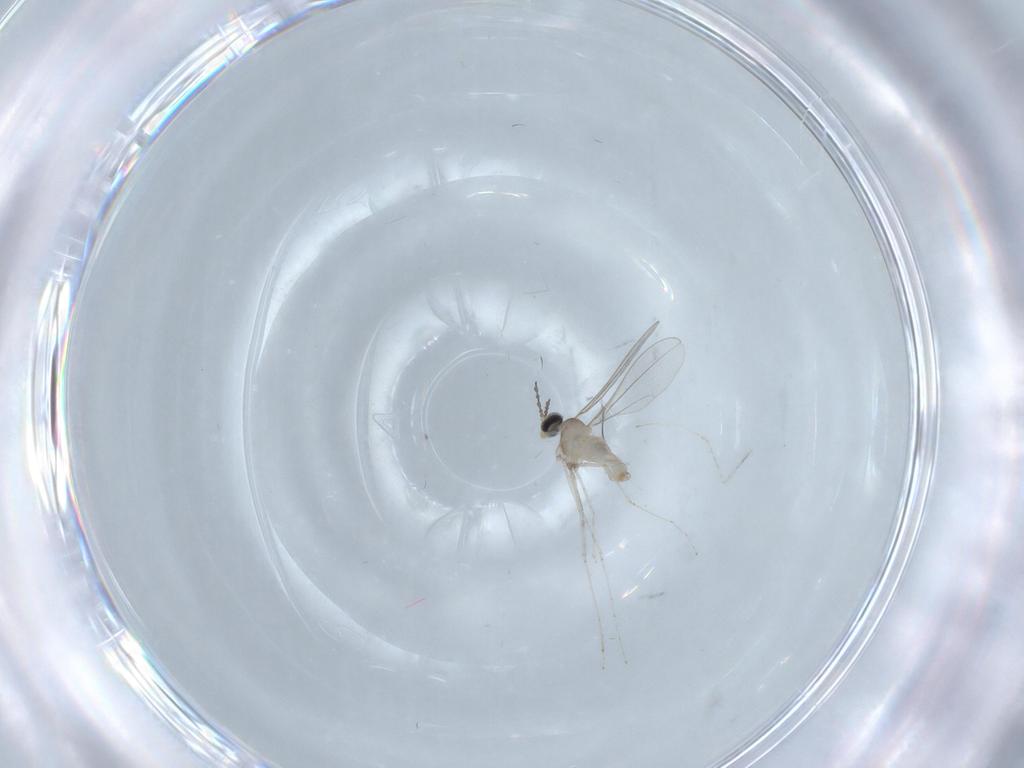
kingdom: Animalia
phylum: Arthropoda
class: Insecta
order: Diptera
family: Cecidomyiidae
